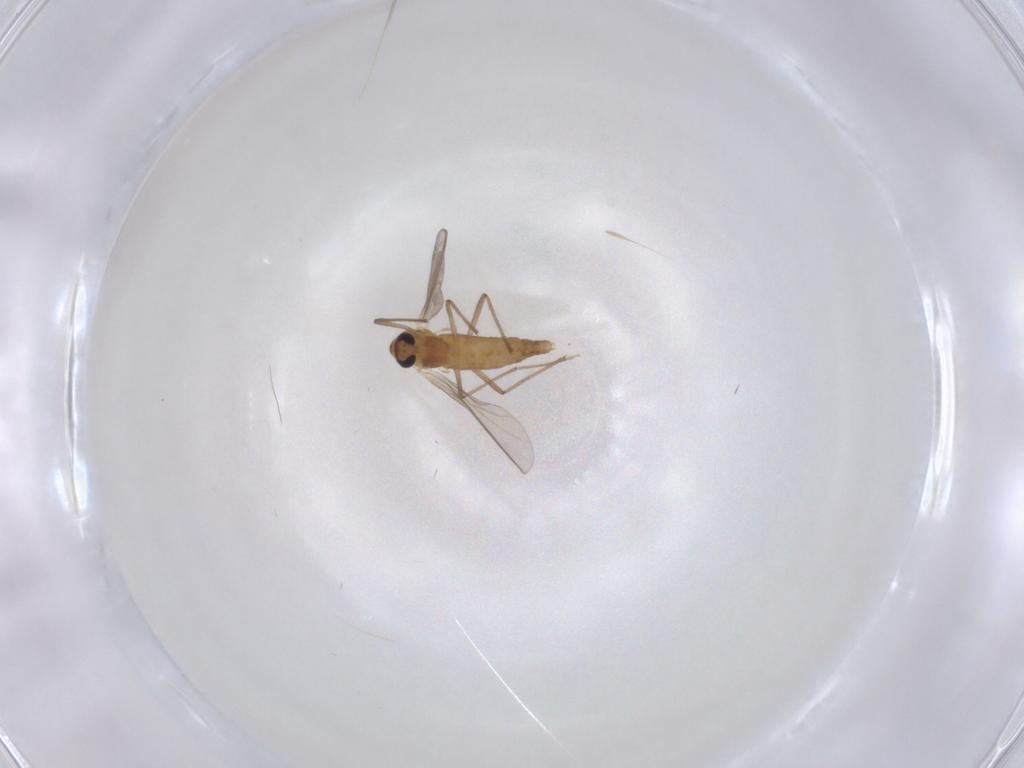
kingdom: Animalia
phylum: Arthropoda
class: Insecta
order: Diptera
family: Chironomidae
